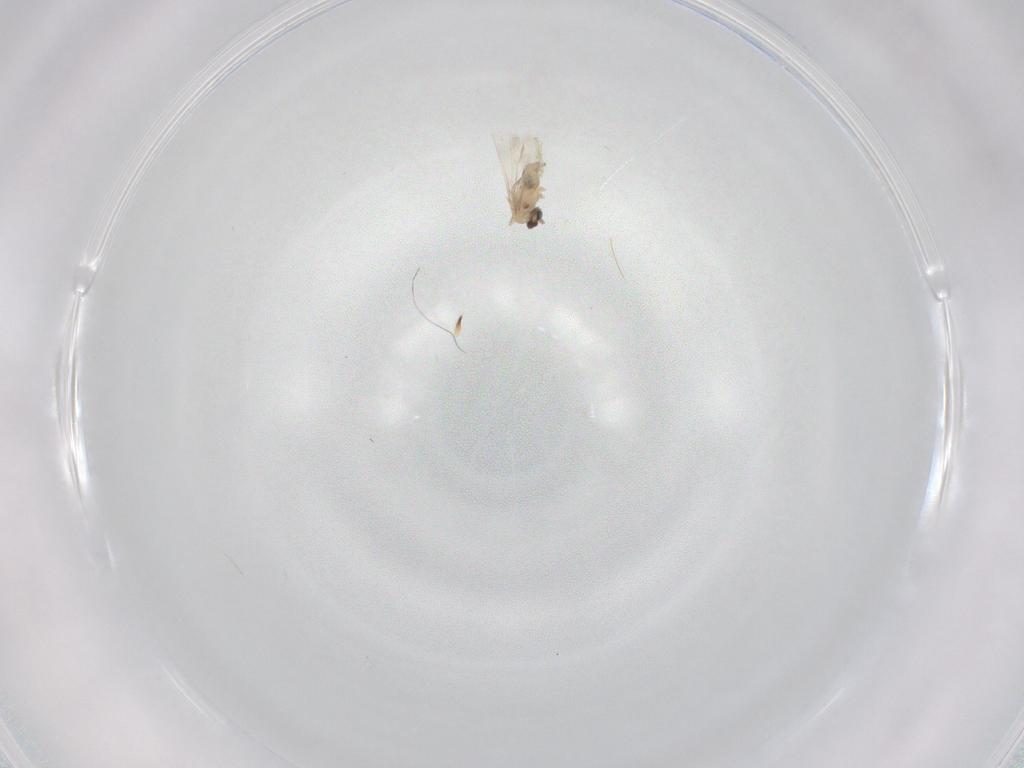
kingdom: Animalia
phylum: Arthropoda
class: Insecta
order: Diptera
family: Cecidomyiidae
